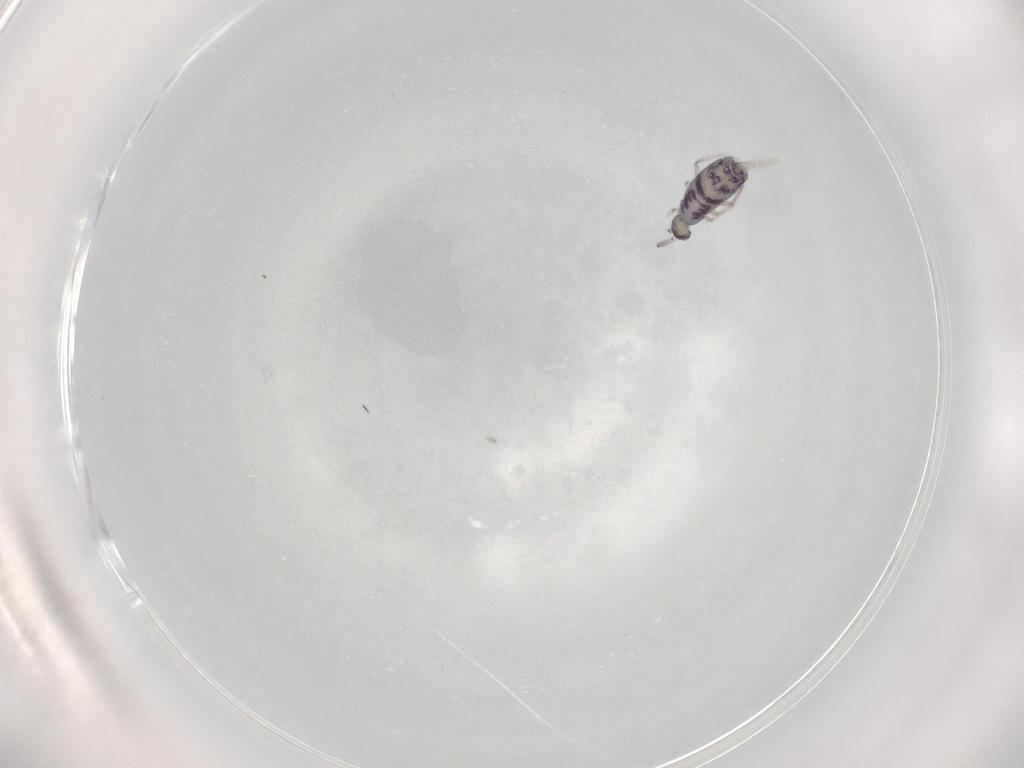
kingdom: Animalia
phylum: Arthropoda
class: Collembola
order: Entomobryomorpha
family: Entomobryidae
